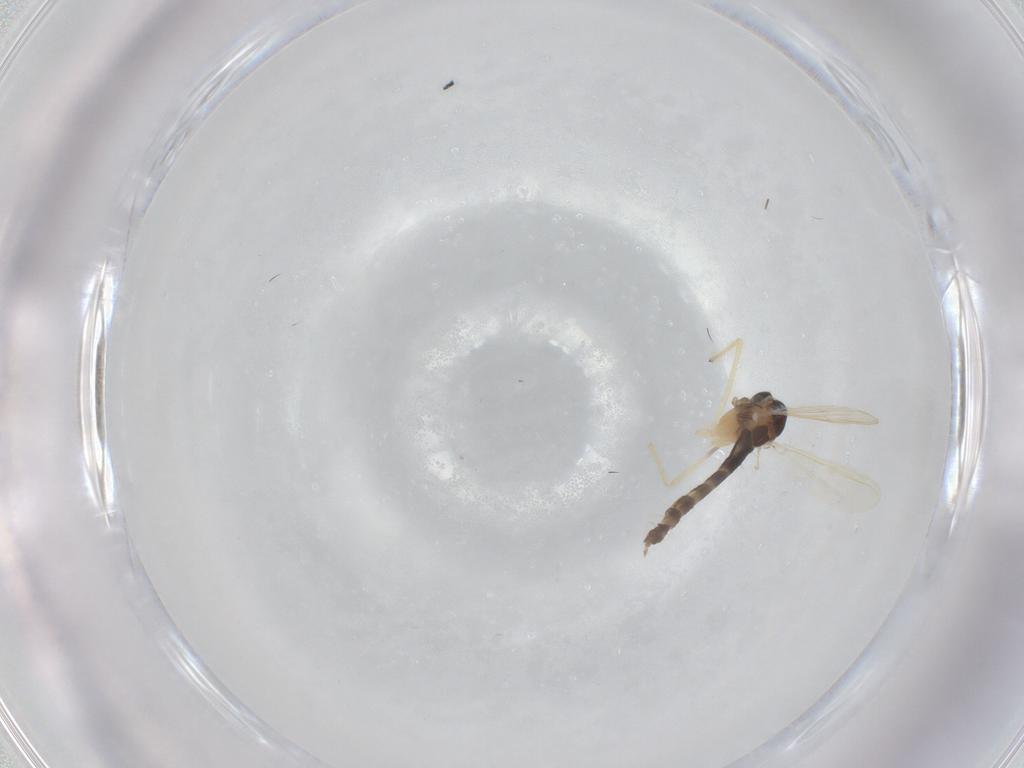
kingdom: Animalia
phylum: Arthropoda
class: Insecta
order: Diptera
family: Chironomidae
